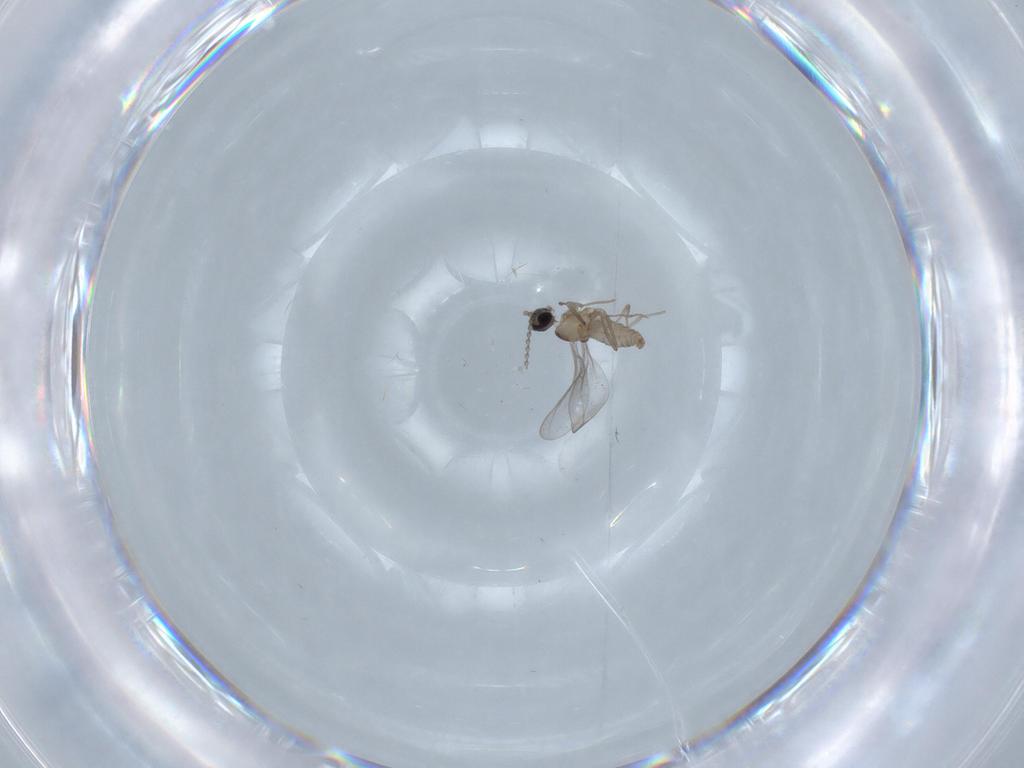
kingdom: Animalia
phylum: Arthropoda
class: Insecta
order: Diptera
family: Cecidomyiidae
